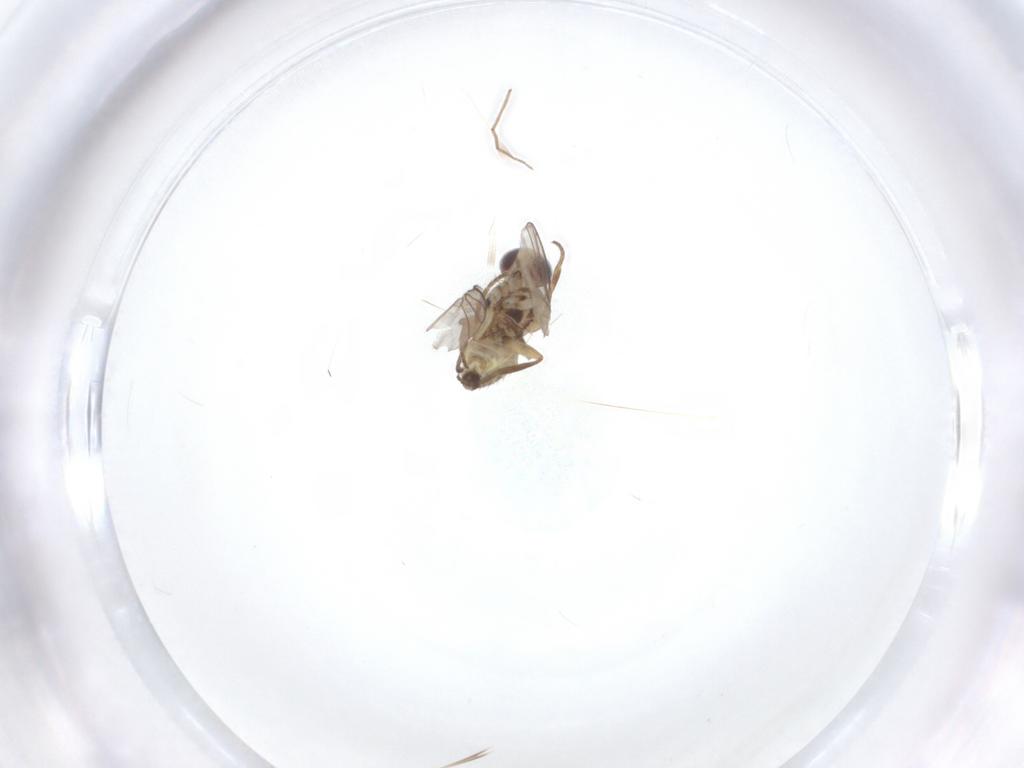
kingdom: Animalia
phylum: Arthropoda
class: Insecta
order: Diptera
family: Agromyzidae
